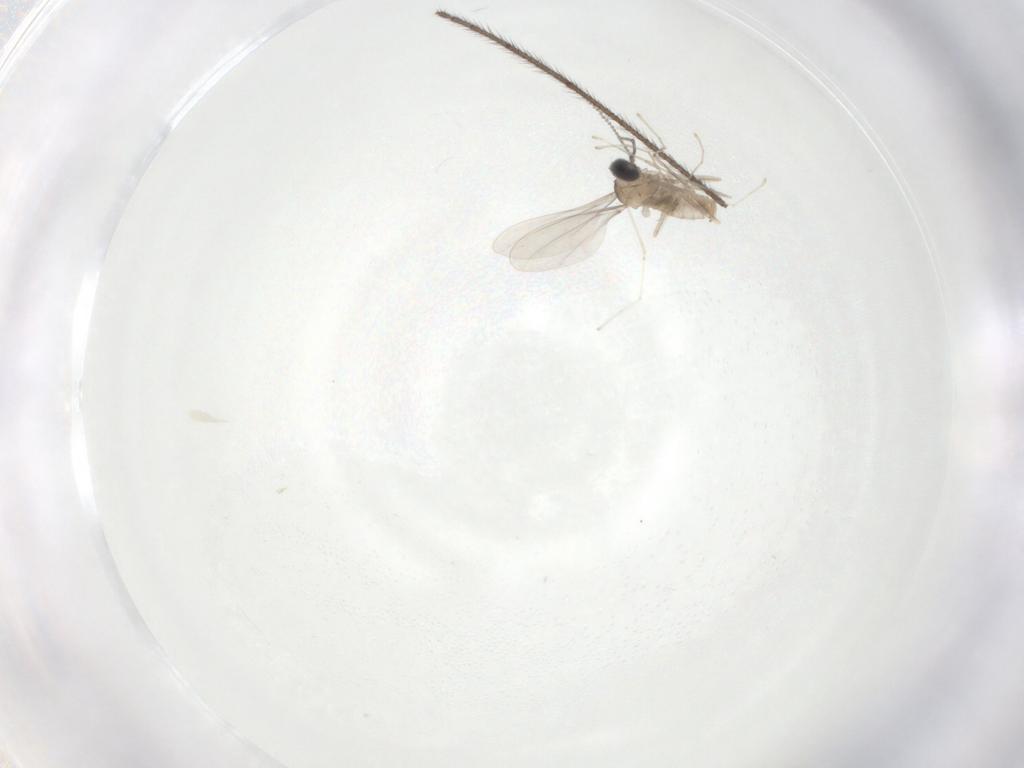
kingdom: Animalia
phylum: Arthropoda
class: Insecta
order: Diptera
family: Cecidomyiidae
